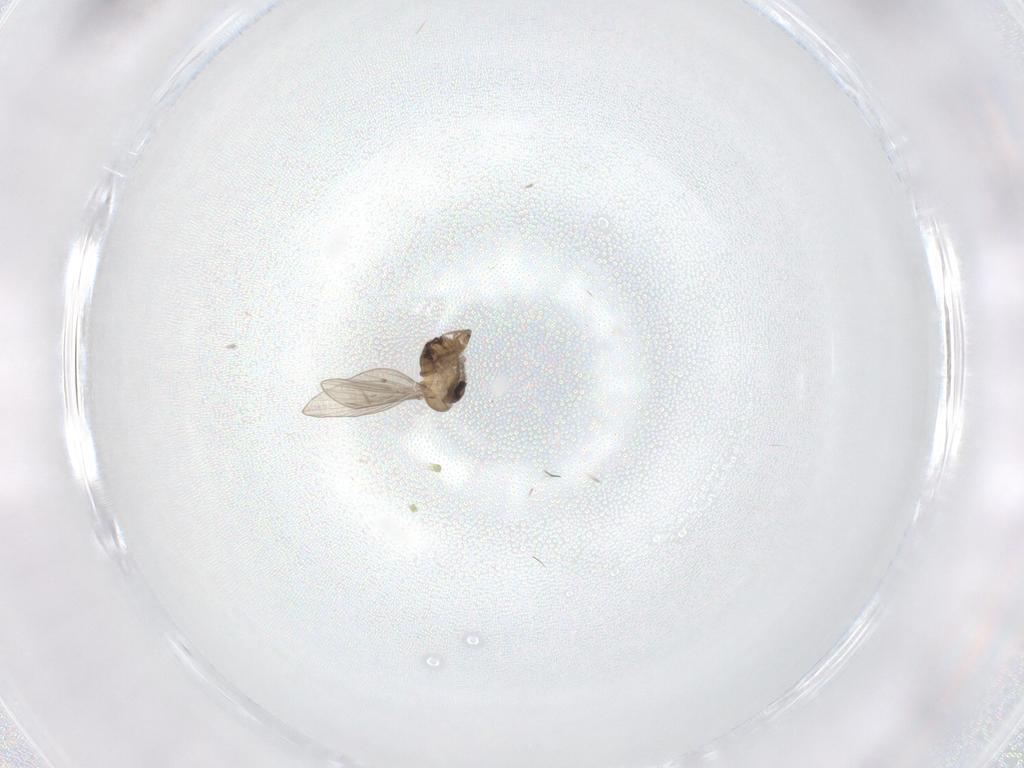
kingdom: Animalia
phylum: Arthropoda
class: Insecta
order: Diptera
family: Psychodidae
